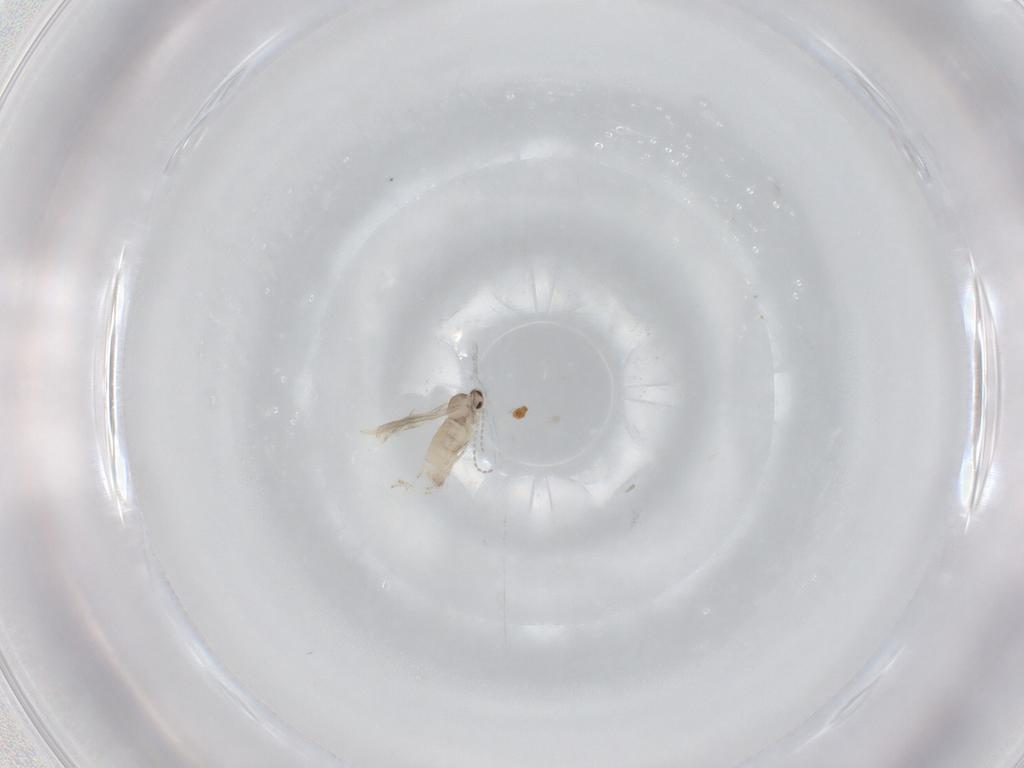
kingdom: Animalia
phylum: Arthropoda
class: Insecta
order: Diptera
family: Cecidomyiidae
